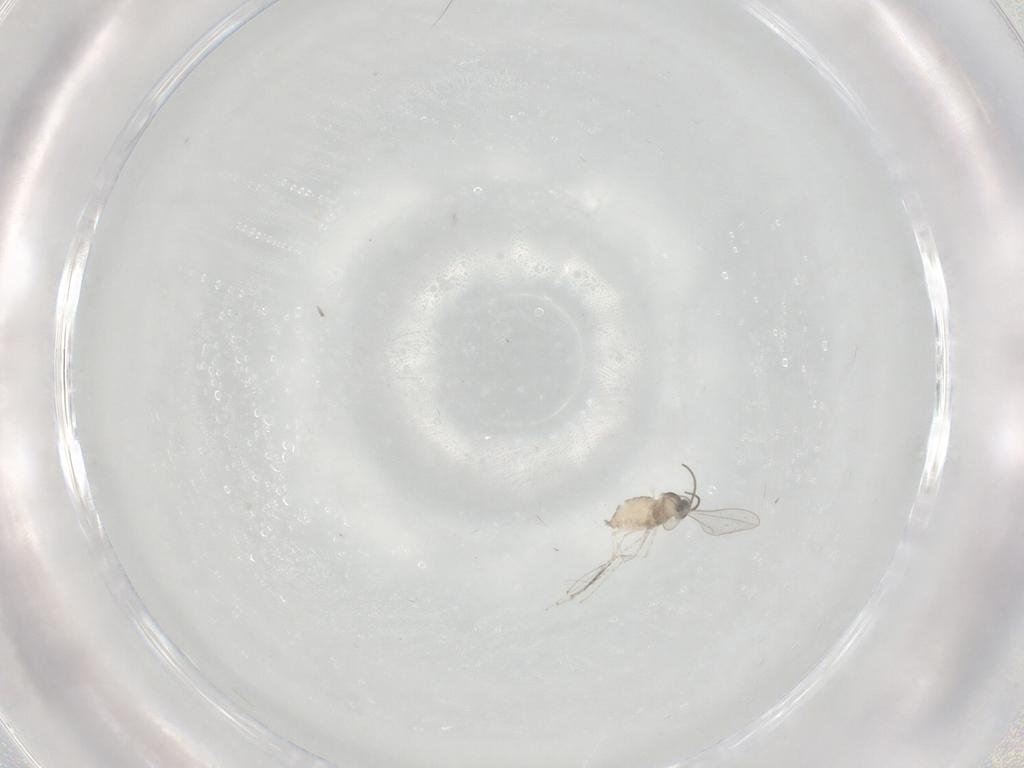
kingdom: Animalia
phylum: Arthropoda
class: Insecta
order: Diptera
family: Cecidomyiidae
